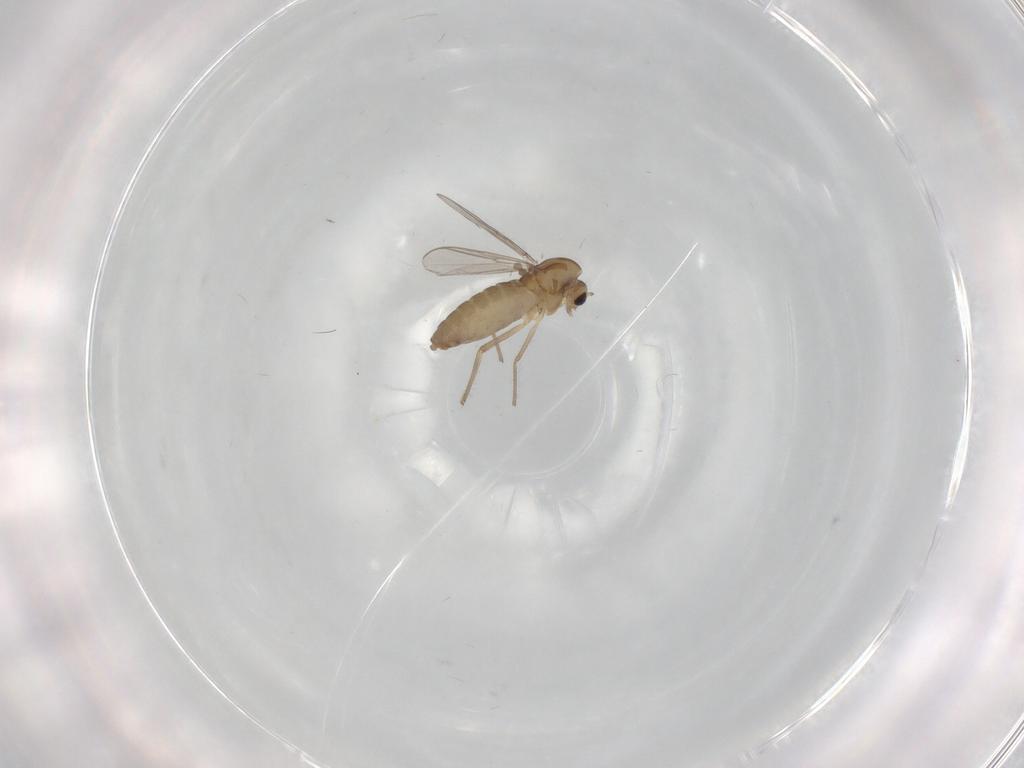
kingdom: Animalia
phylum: Arthropoda
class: Insecta
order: Diptera
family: Chironomidae
